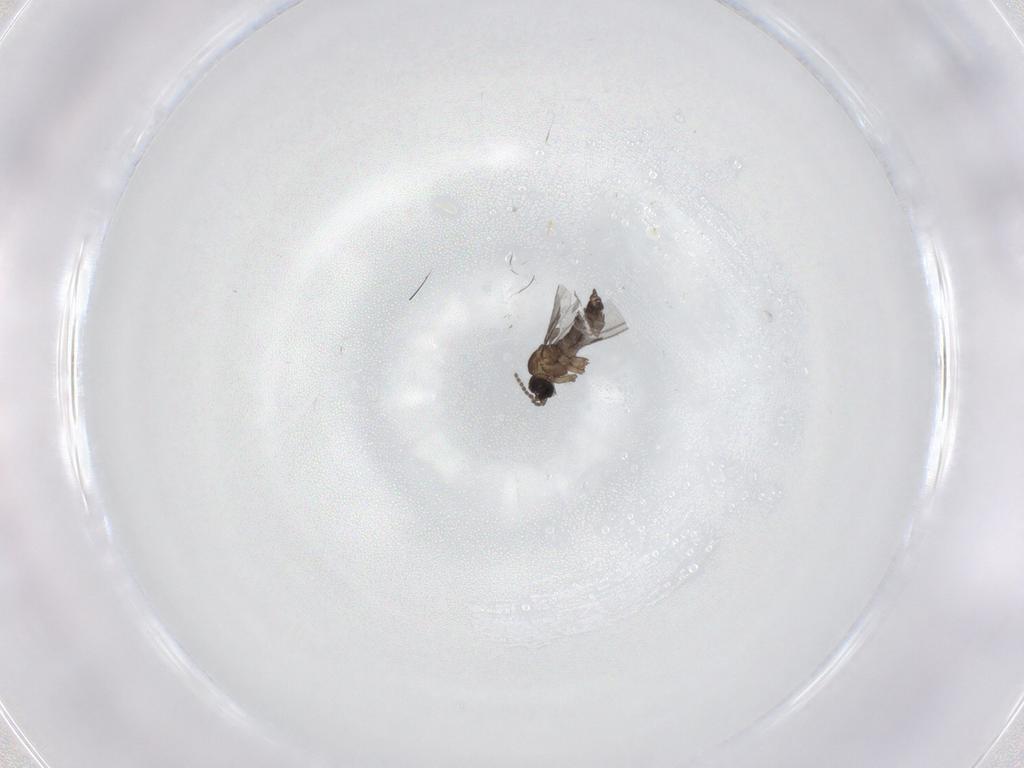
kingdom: Animalia
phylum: Arthropoda
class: Insecta
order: Diptera
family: Sciaridae
